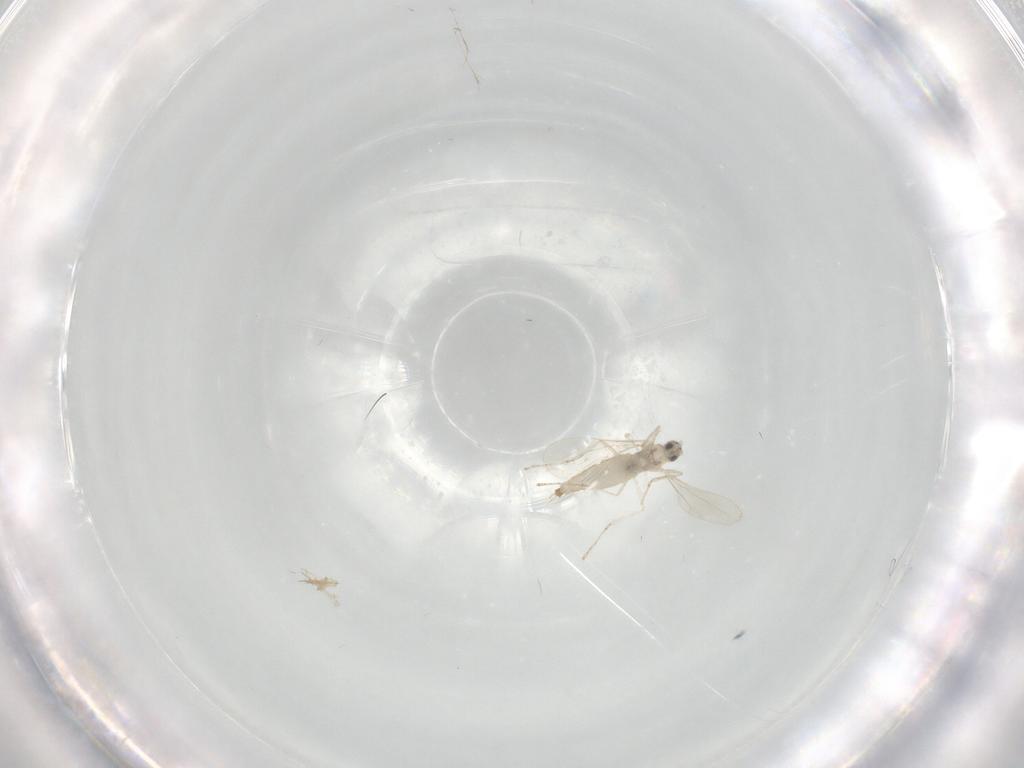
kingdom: Animalia
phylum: Arthropoda
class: Insecta
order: Diptera
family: Cecidomyiidae
